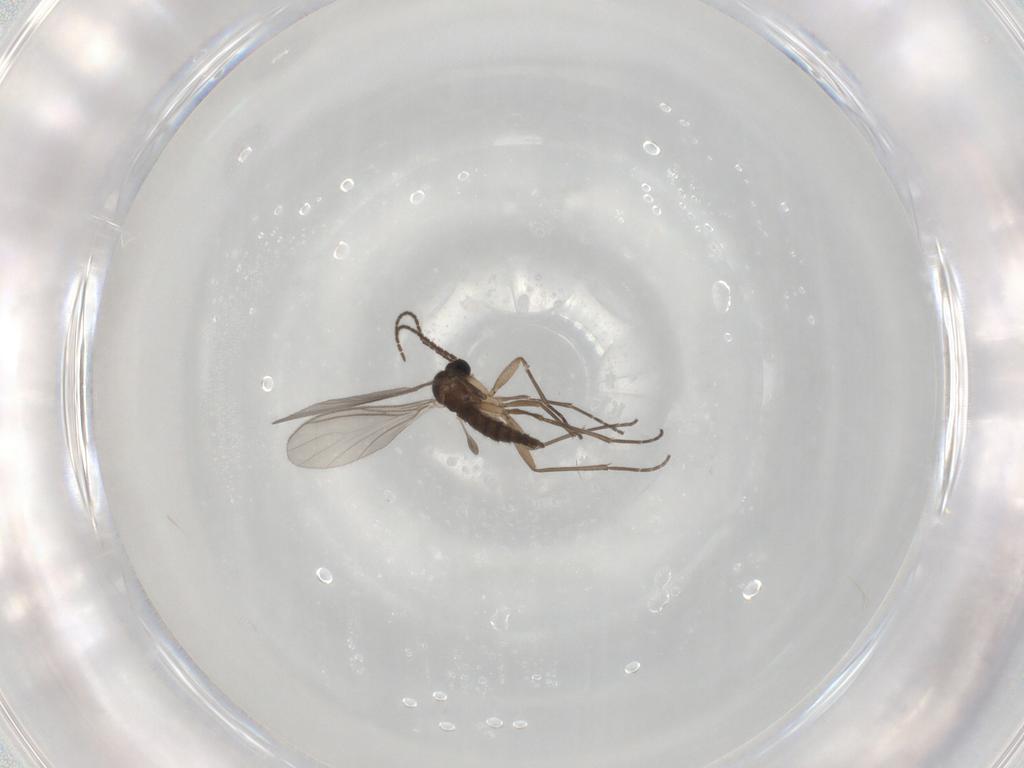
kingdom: Animalia
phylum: Arthropoda
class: Insecta
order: Diptera
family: Sciaridae
